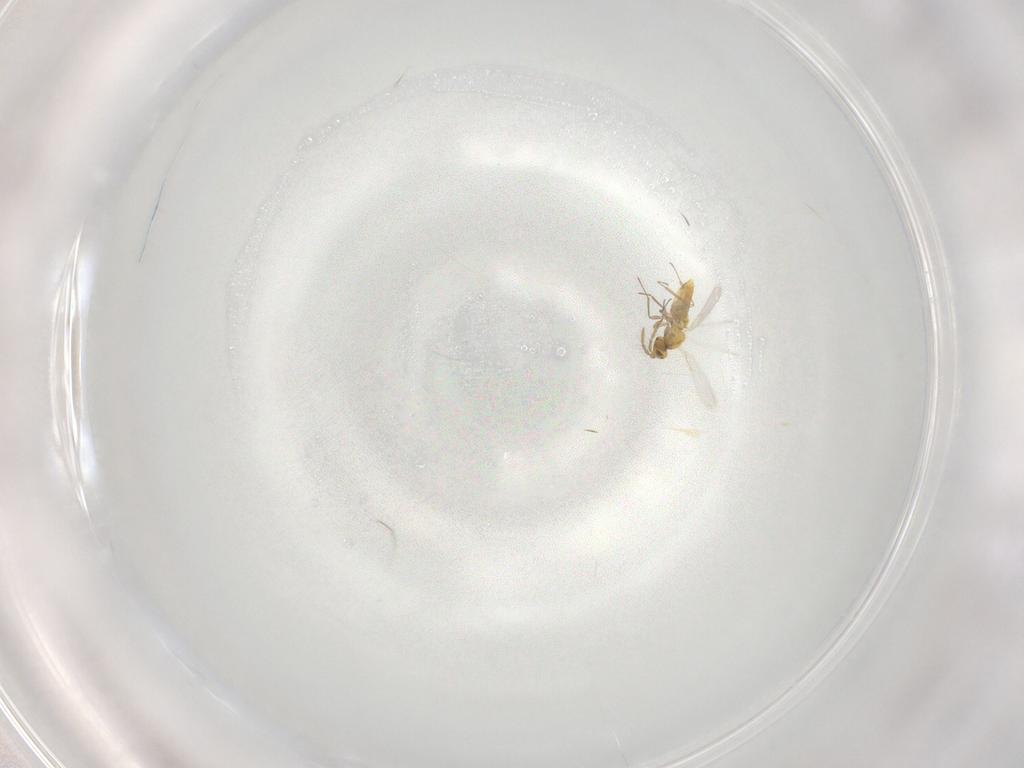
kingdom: Animalia
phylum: Arthropoda
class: Insecta
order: Hymenoptera
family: Aphelinidae
